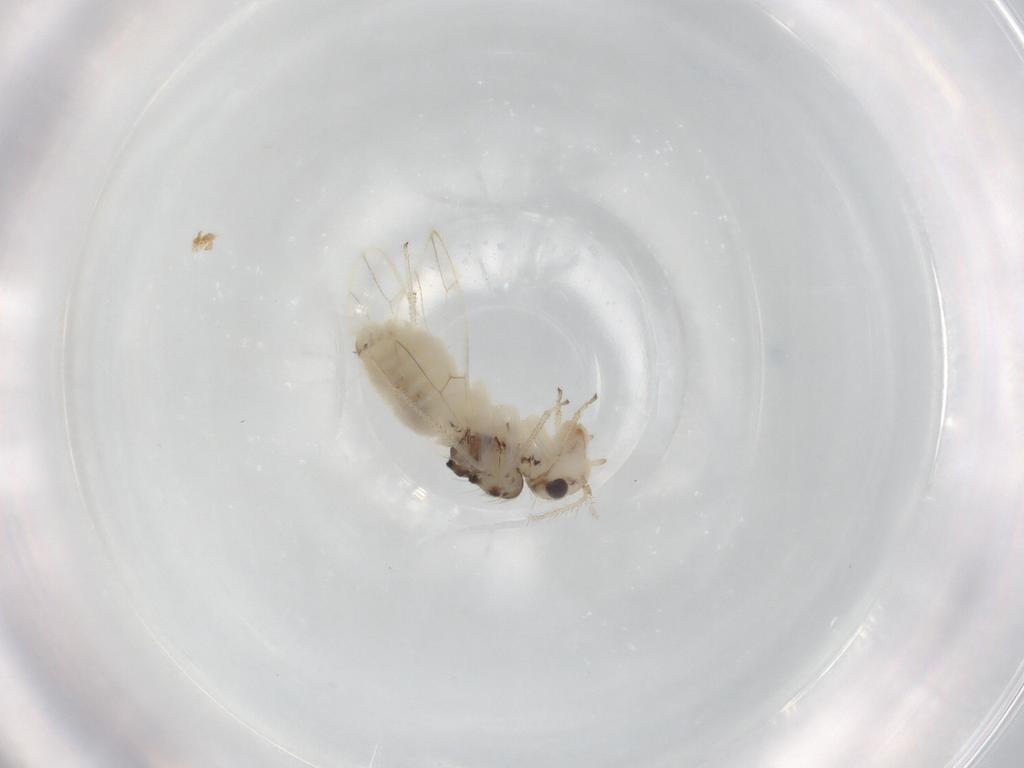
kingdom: Animalia
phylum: Arthropoda
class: Insecta
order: Psocodea
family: Caeciliusidae
